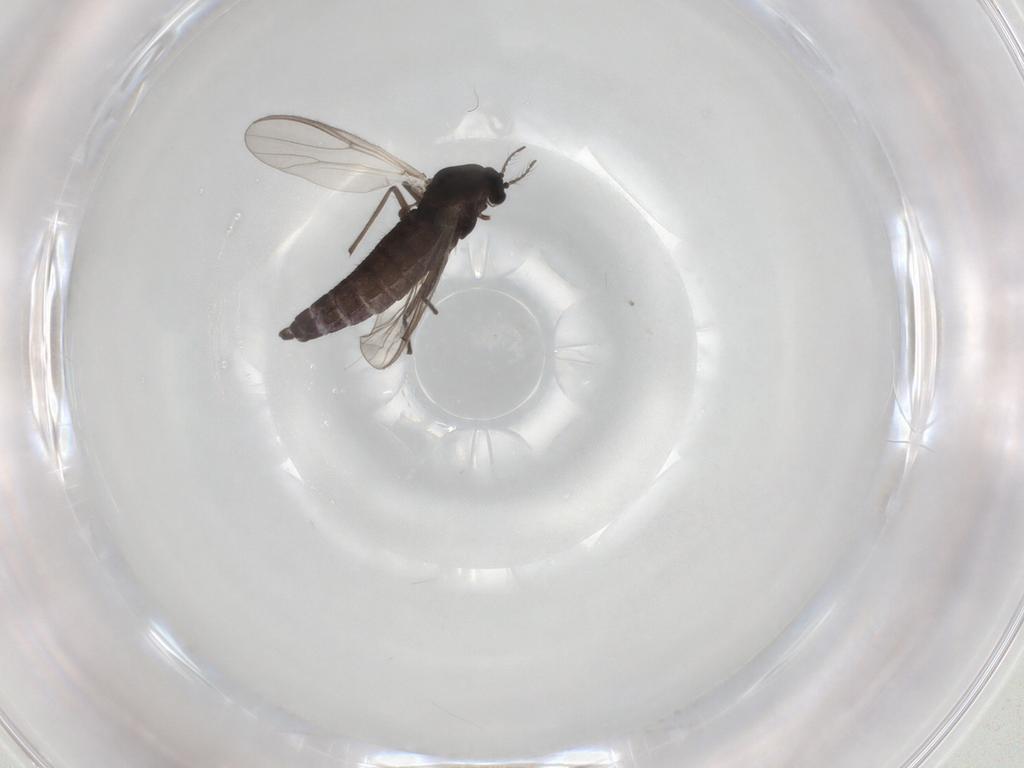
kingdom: Animalia
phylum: Arthropoda
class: Insecta
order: Diptera
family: Chironomidae
